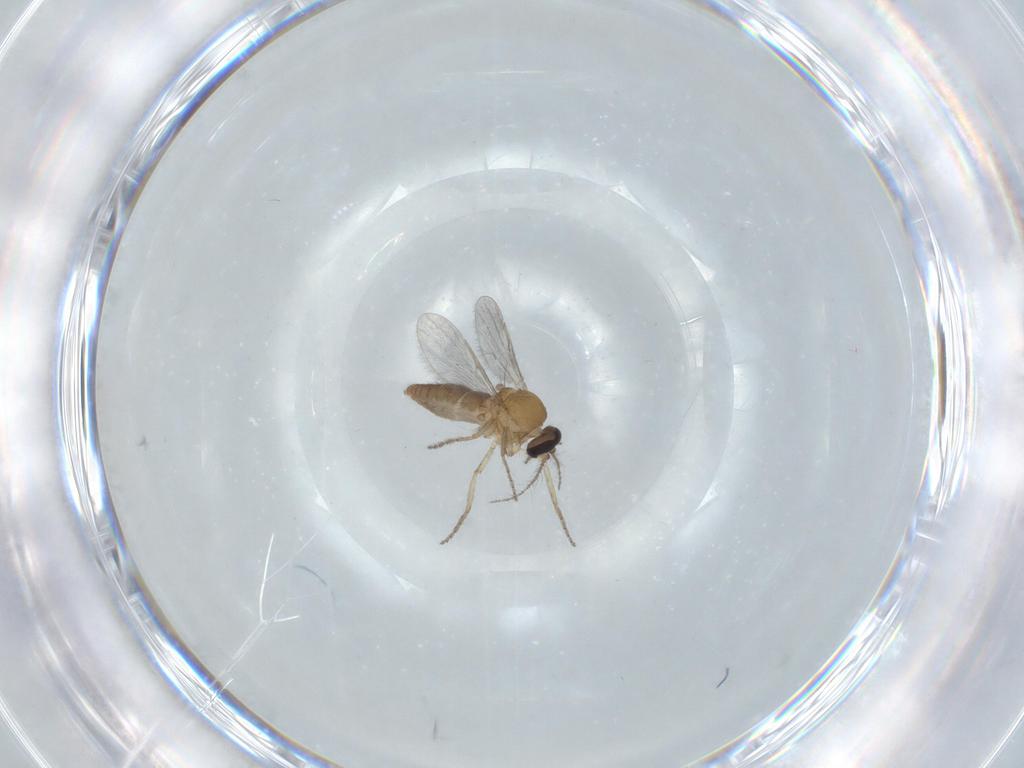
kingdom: Animalia
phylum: Arthropoda
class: Insecta
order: Diptera
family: Ceratopogonidae
